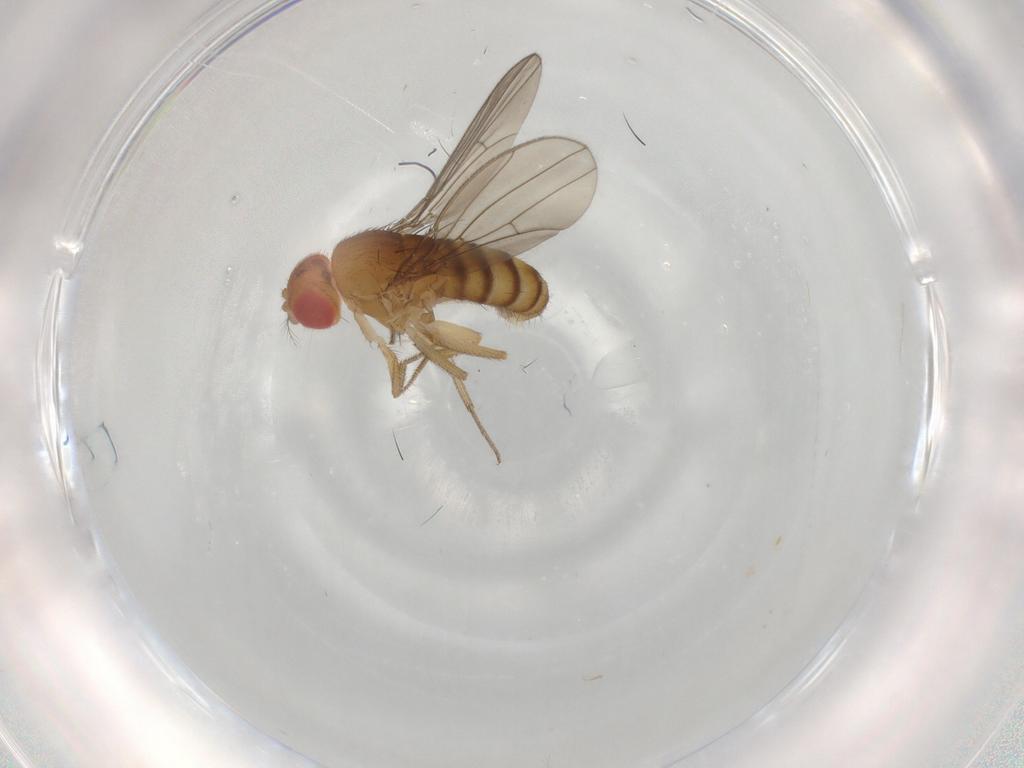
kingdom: Animalia
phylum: Arthropoda
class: Insecta
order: Diptera
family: Drosophilidae
